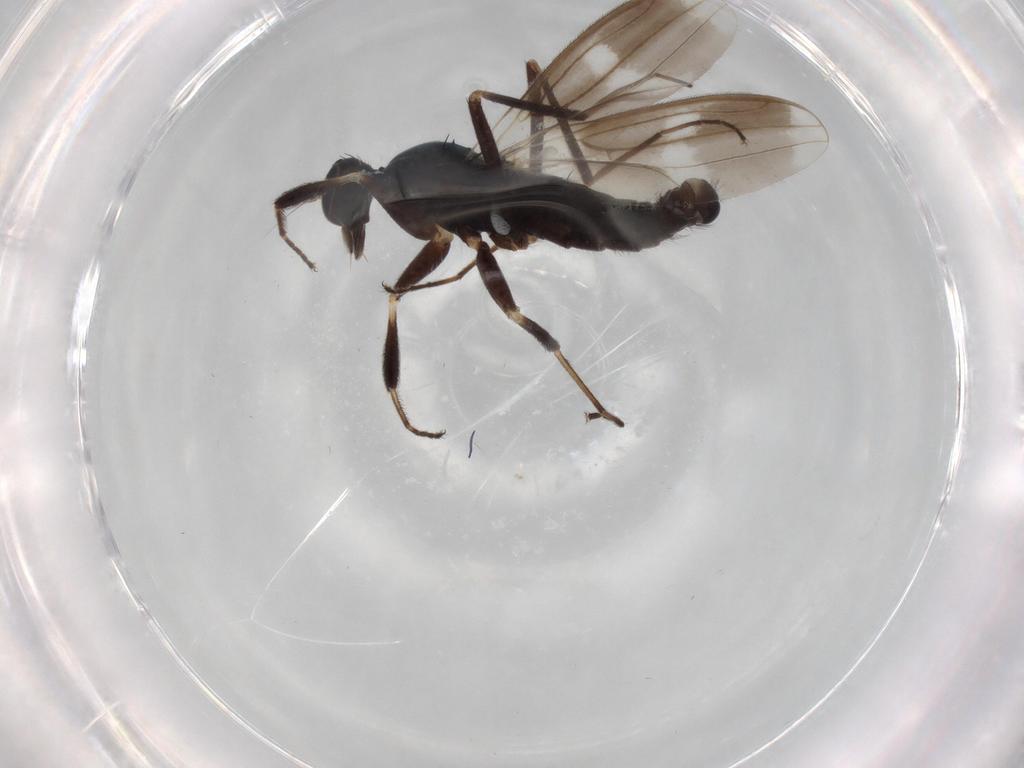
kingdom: Animalia
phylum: Arthropoda
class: Insecta
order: Diptera
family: Hybotidae
